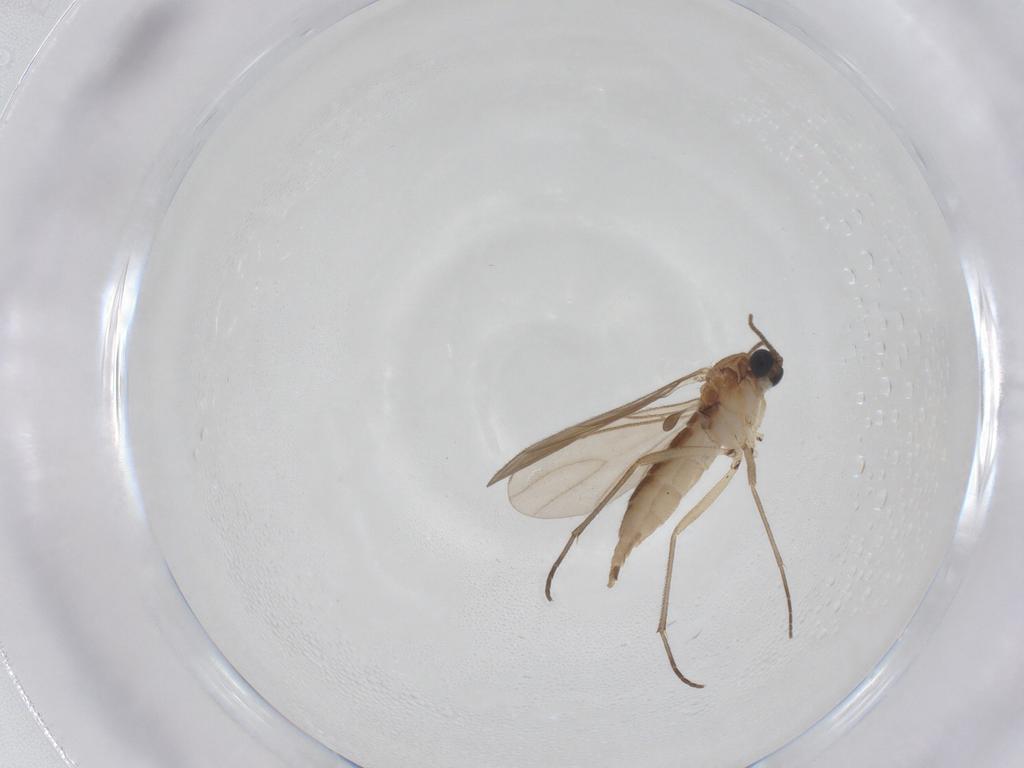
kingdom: Animalia
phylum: Arthropoda
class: Insecta
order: Diptera
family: Sciaridae
